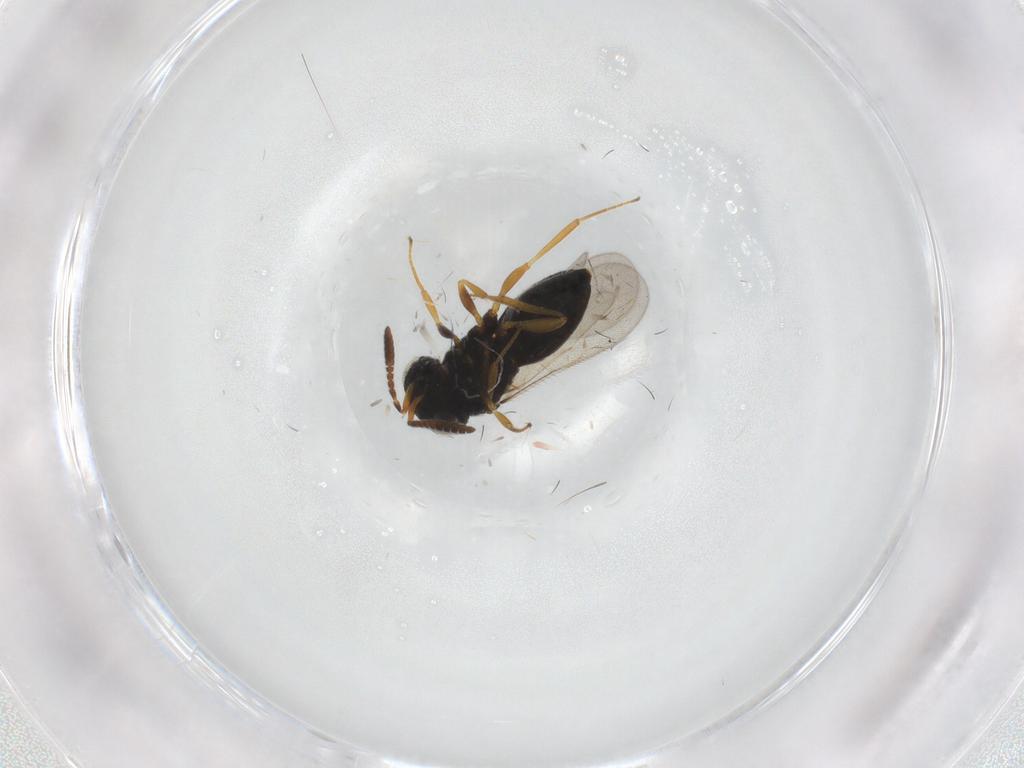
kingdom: Animalia
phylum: Arthropoda
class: Insecta
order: Hymenoptera
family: Scelionidae
